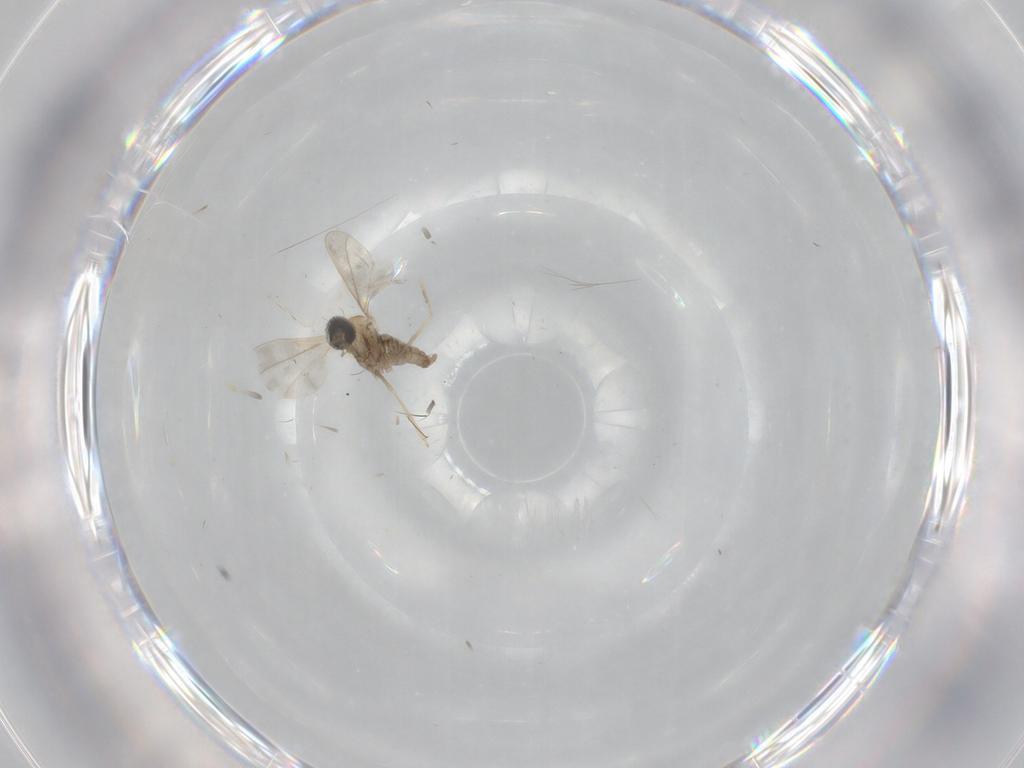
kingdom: Animalia
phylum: Arthropoda
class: Insecta
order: Diptera
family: Cecidomyiidae
